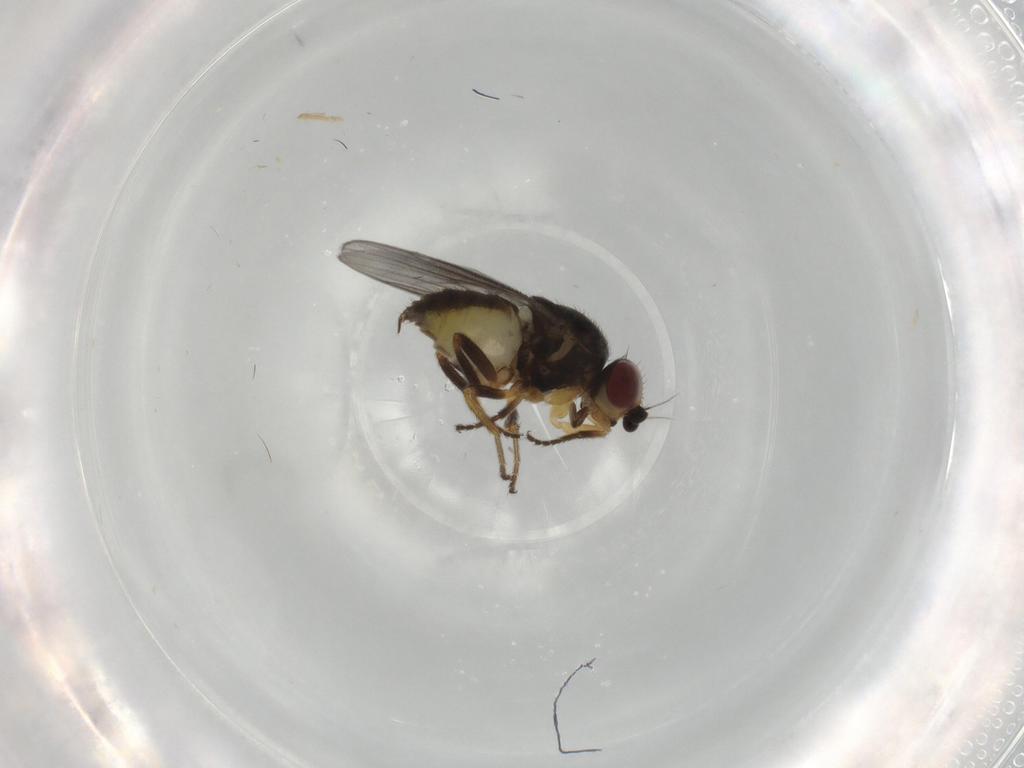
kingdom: Animalia
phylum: Arthropoda
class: Insecta
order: Diptera
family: Chloropidae
